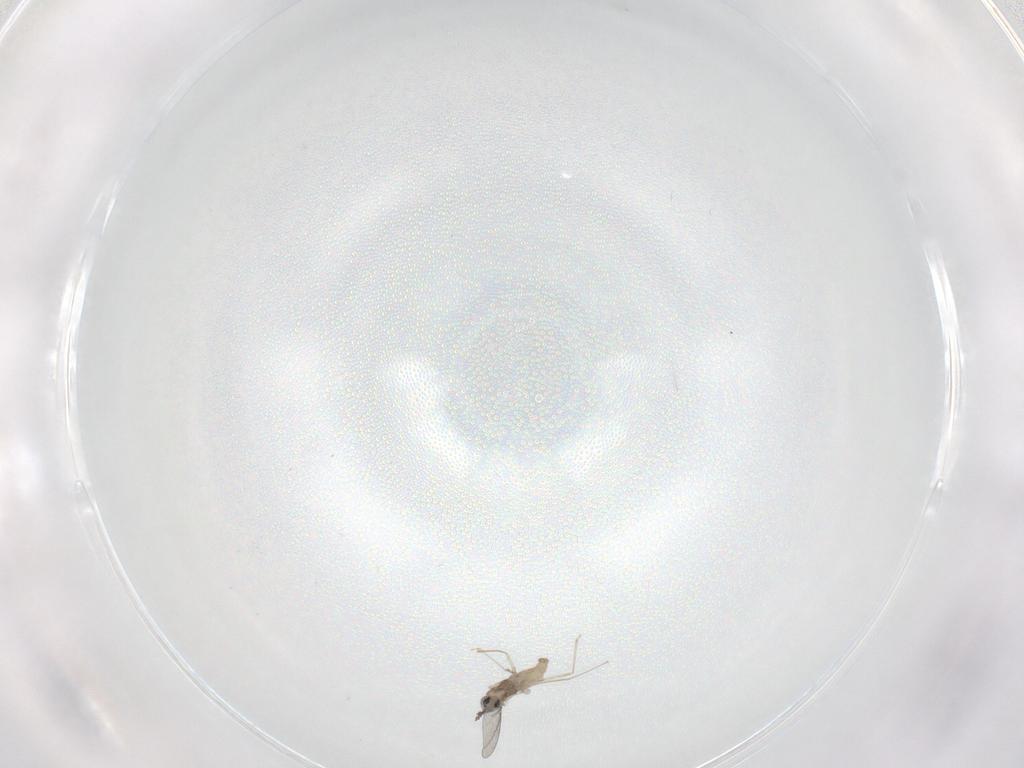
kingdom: Animalia
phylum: Arthropoda
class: Insecta
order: Diptera
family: Cecidomyiidae
